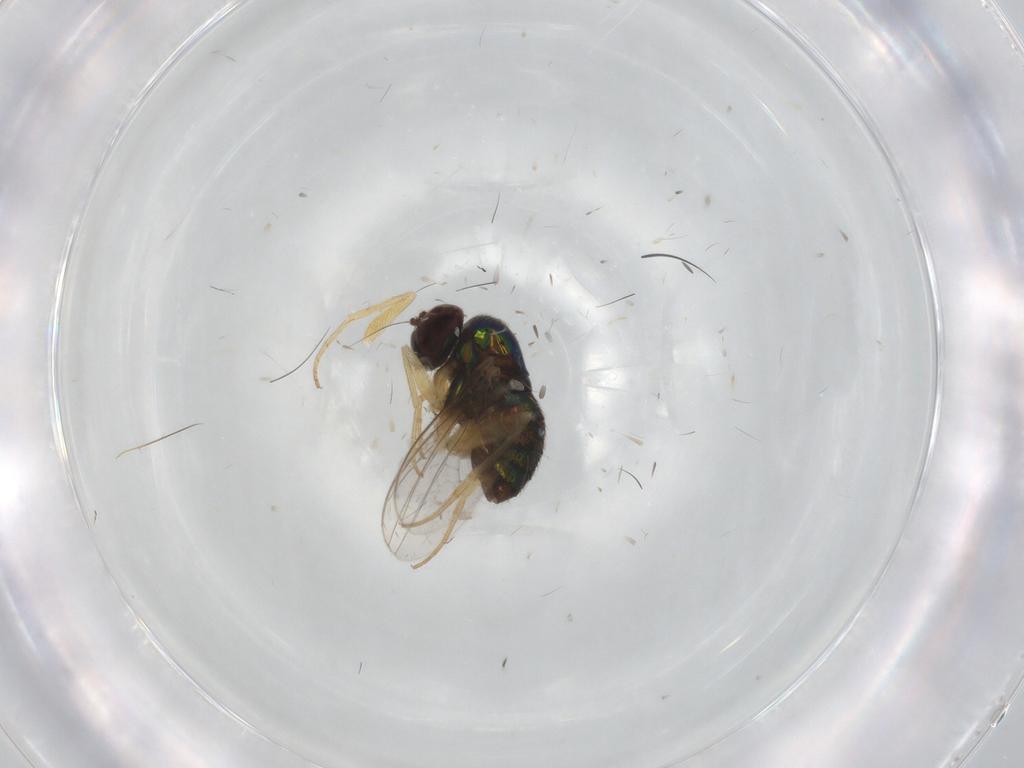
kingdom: Animalia
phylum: Arthropoda
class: Insecta
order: Diptera
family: Dolichopodidae
